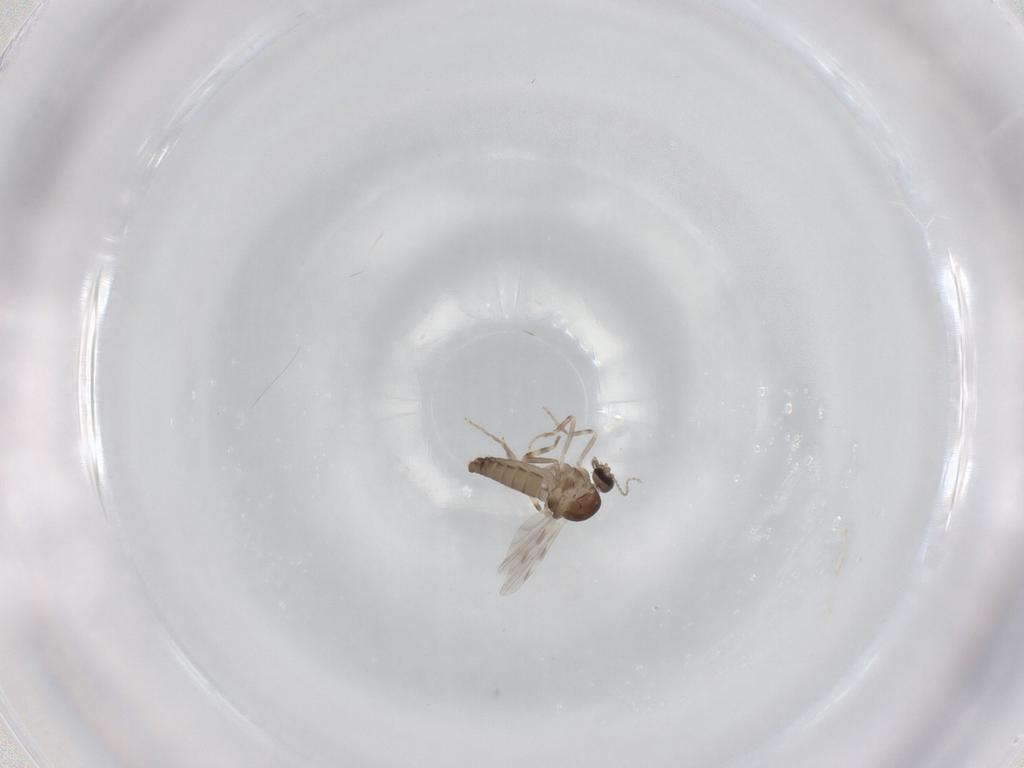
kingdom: Animalia
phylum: Arthropoda
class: Insecta
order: Diptera
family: Ceratopogonidae
